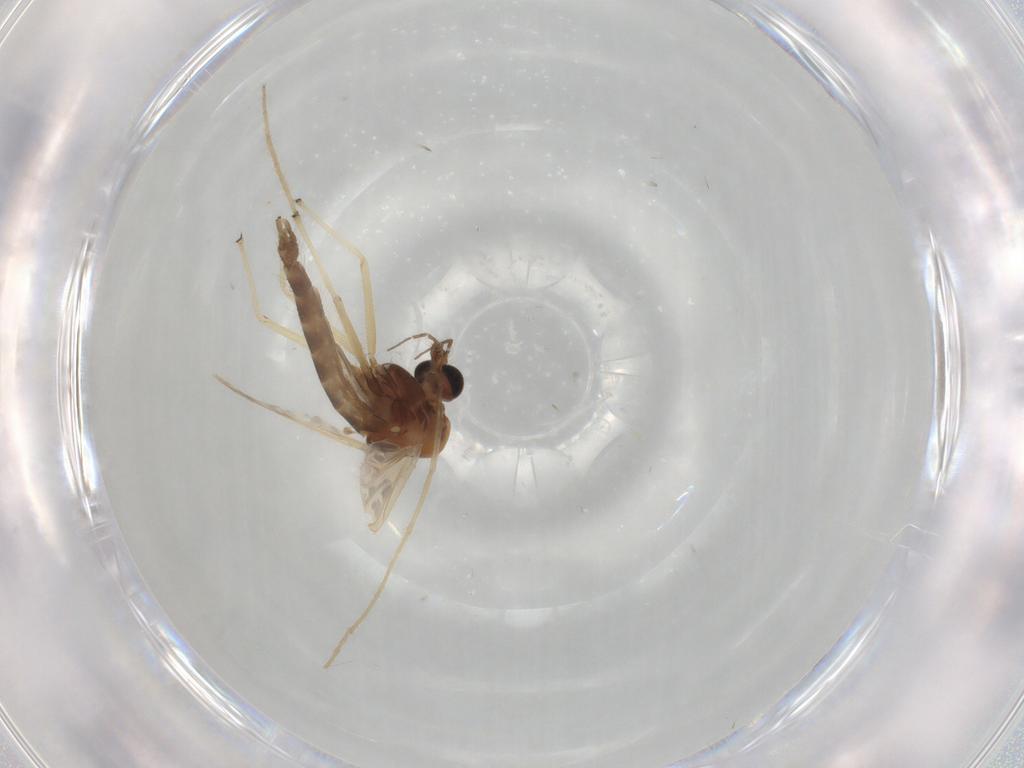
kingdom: Animalia
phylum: Arthropoda
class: Insecta
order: Diptera
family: Chironomidae
